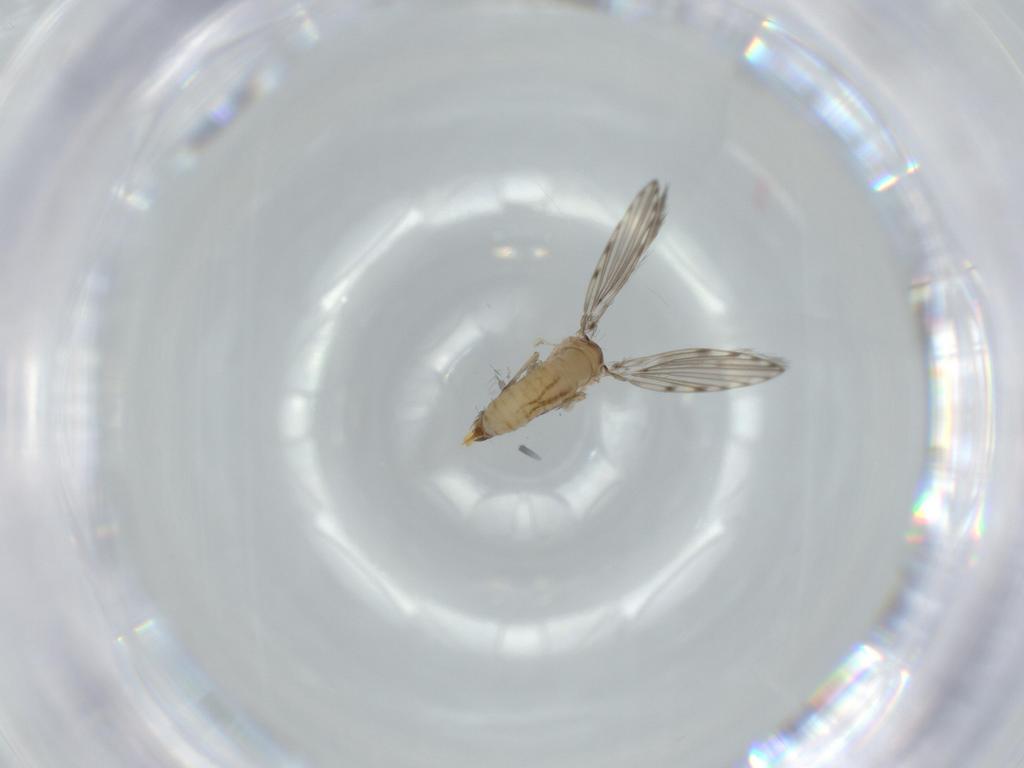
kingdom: Animalia
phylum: Arthropoda
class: Insecta
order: Diptera
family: Psychodidae
